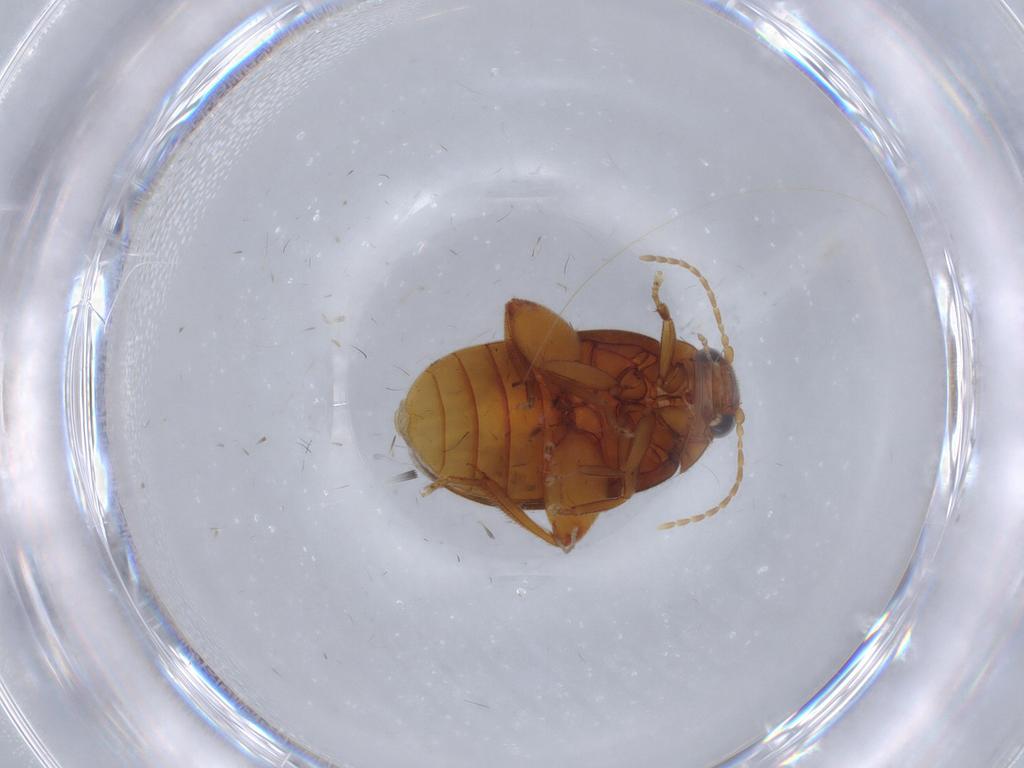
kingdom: Animalia
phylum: Arthropoda
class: Insecta
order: Coleoptera
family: Scirtidae
